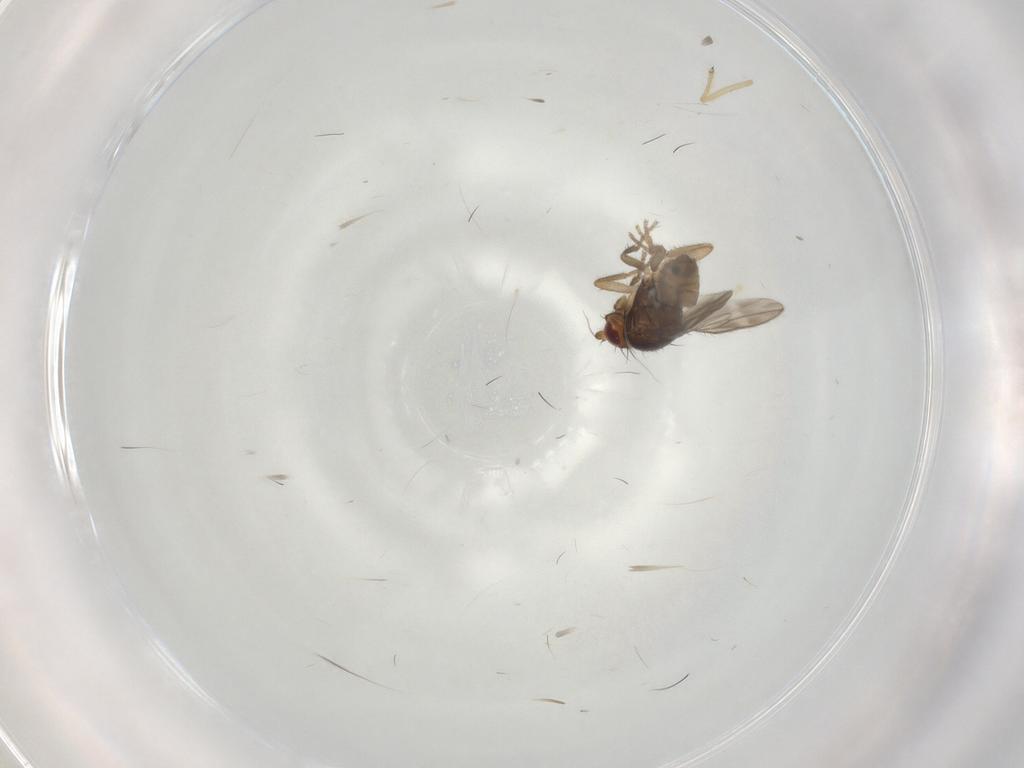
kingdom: Animalia
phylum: Arthropoda
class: Insecta
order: Diptera
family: Sphaeroceridae
